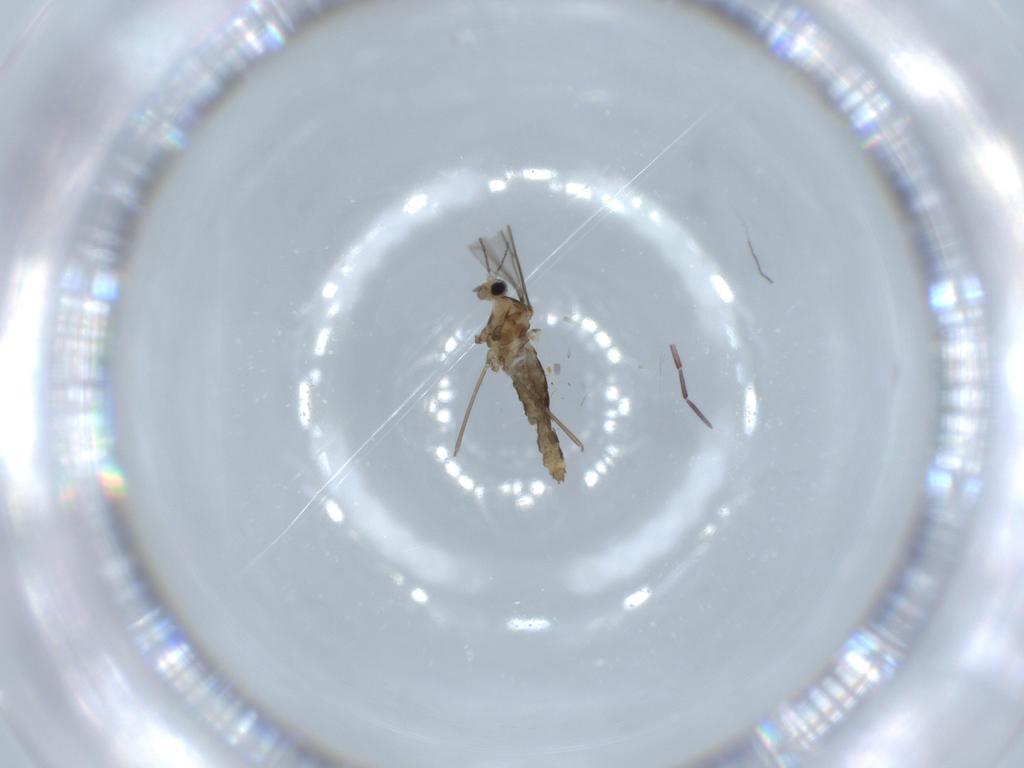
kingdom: Animalia
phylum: Arthropoda
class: Insecta
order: Diptera
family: Cecidomyiidae
